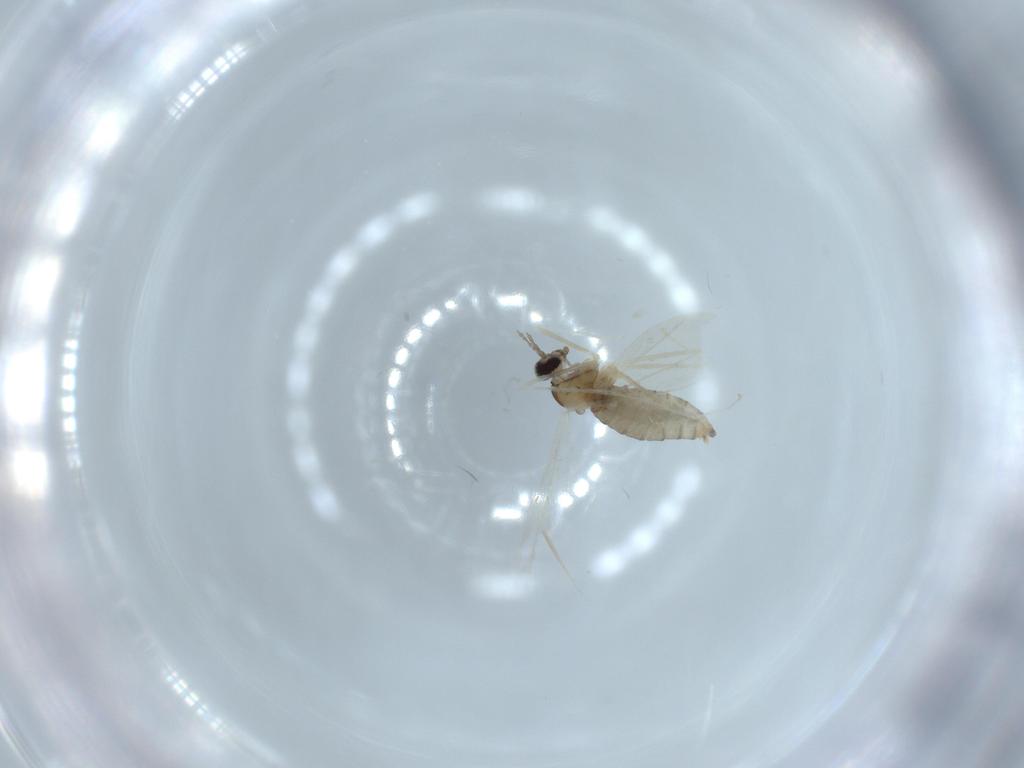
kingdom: Animalia
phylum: Arthropoda
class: Insecta
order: Diptera
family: Cecidomyiidae
